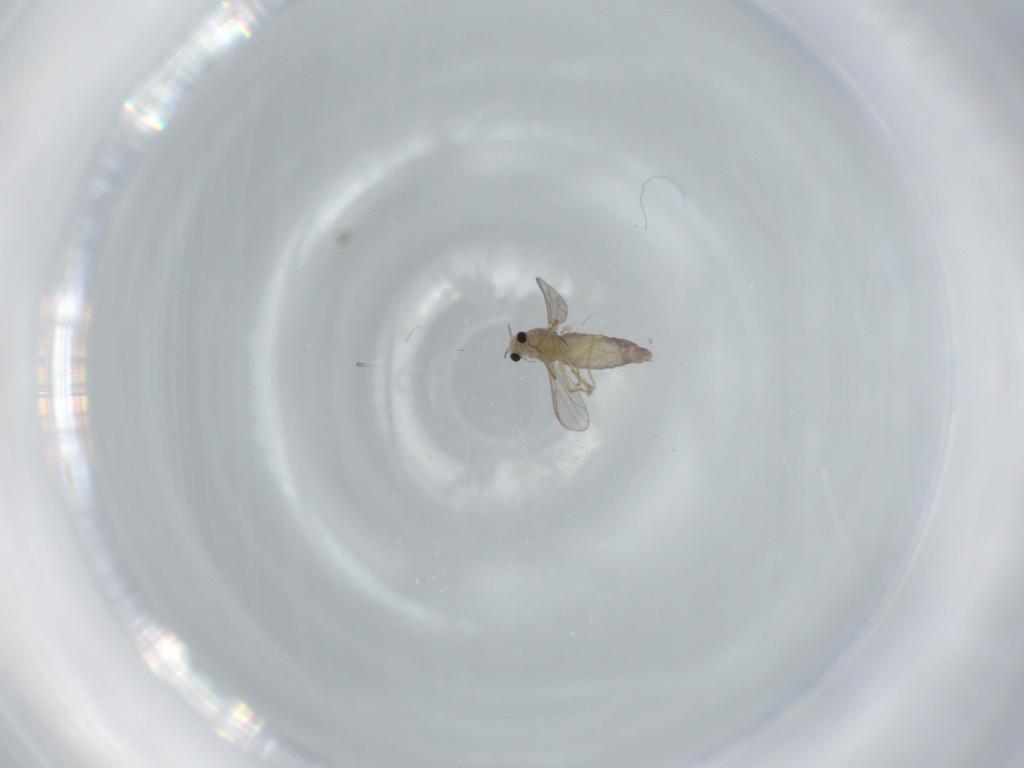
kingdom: Animalia
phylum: Arthropoda
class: Insecta
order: Diptera
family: Chironomidae
